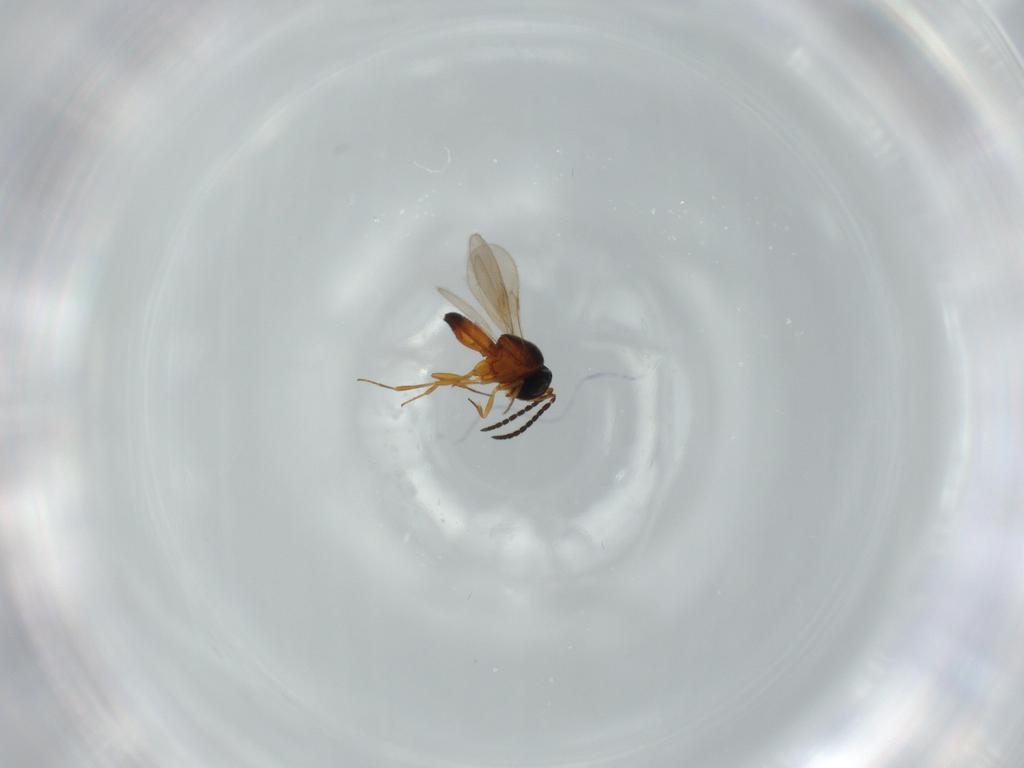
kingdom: Animalia
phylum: Arthropoda
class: Insecta
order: Hymenoptera
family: Scelionidae
